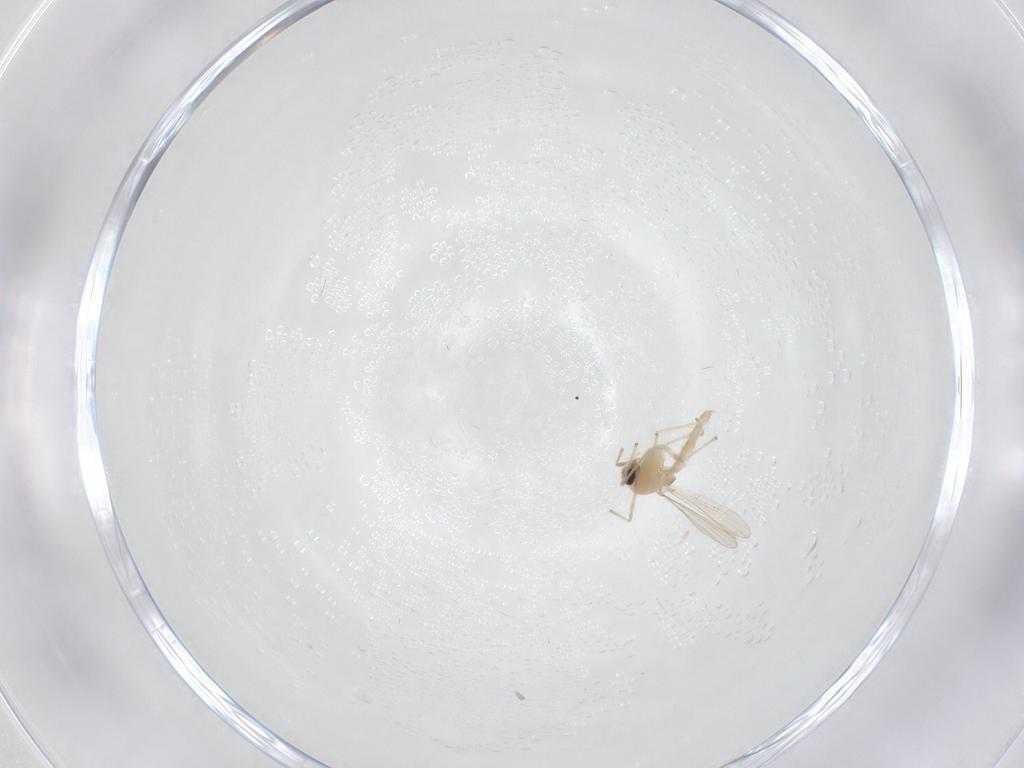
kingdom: Animalia
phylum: Arthropoda
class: Insecta
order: Diptera
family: Chironomidae
